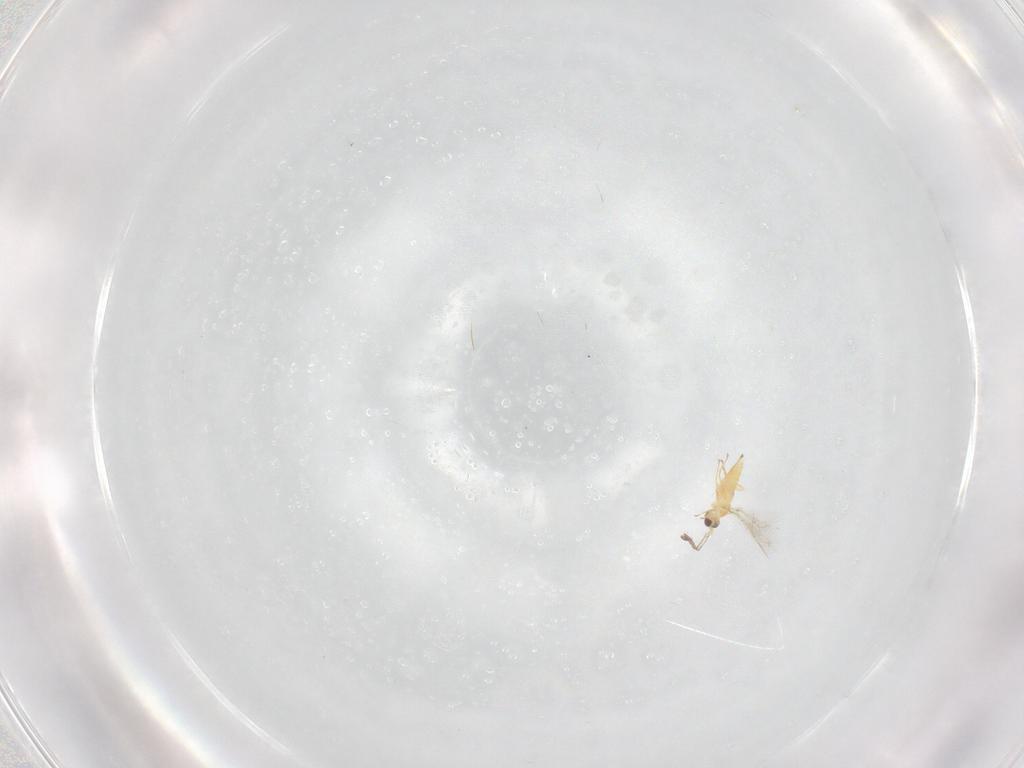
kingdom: Animalia
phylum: Arthropoda
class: Insecta
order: Hymenoptera
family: Mymaridae
